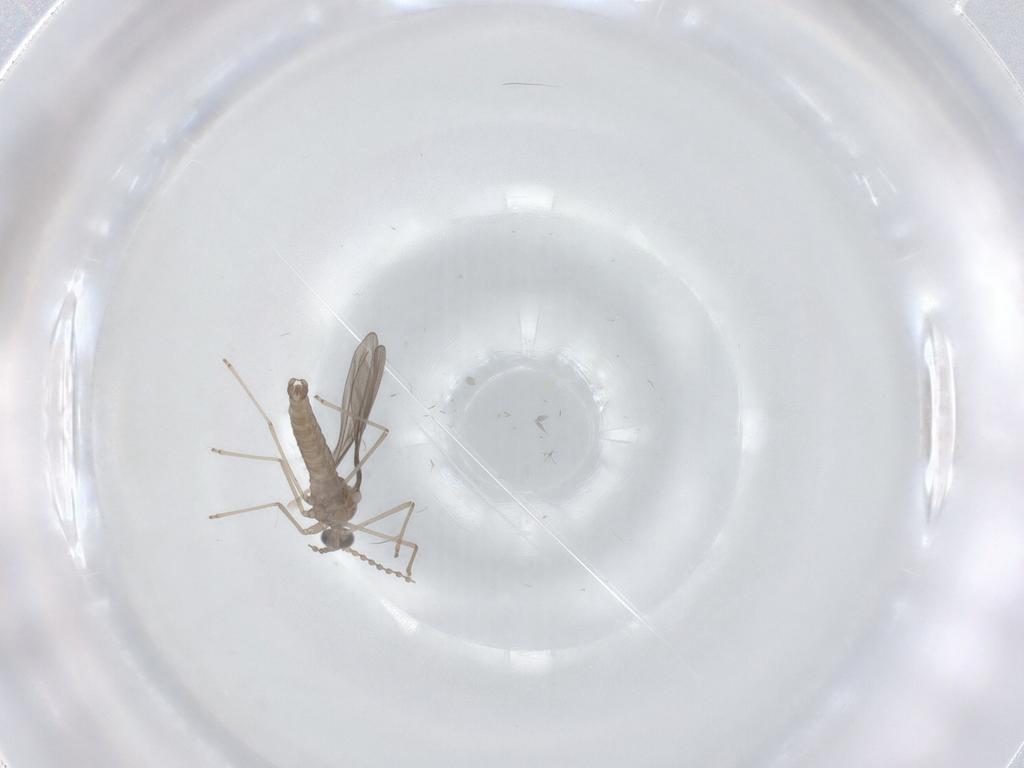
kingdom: Animalia
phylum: Arthropoda
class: Insecta
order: Diptera
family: Cecidomyiidae
